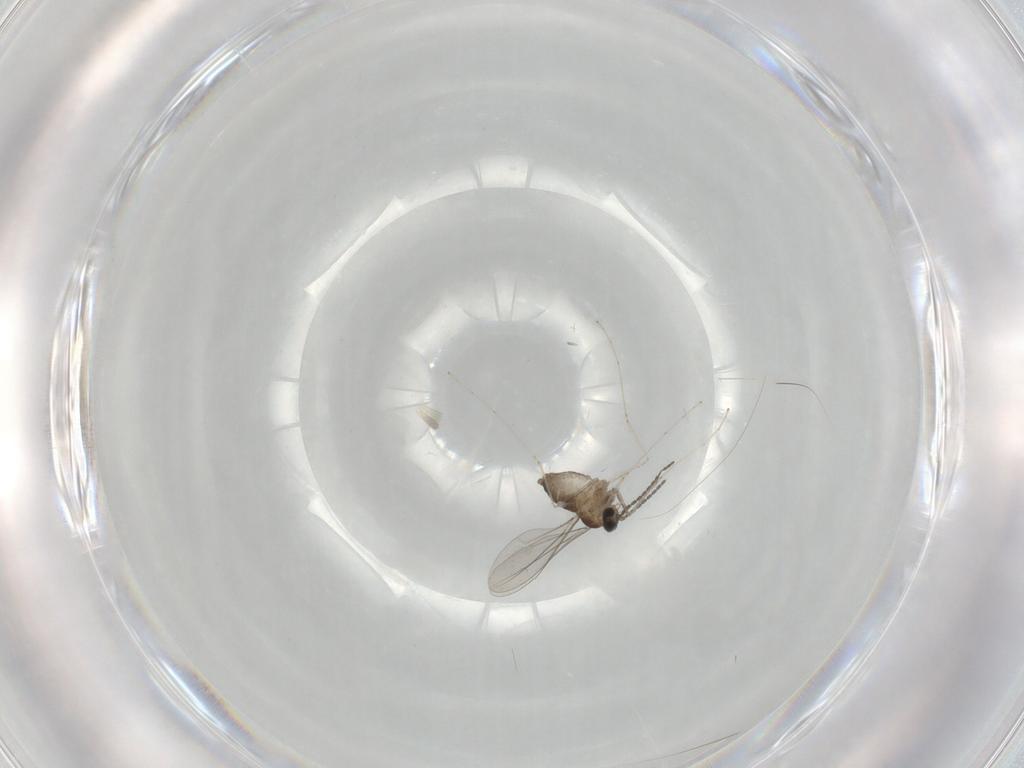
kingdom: Animalia
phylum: Arthropoda
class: Insecta
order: Diptera
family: Cecidomyiidae
